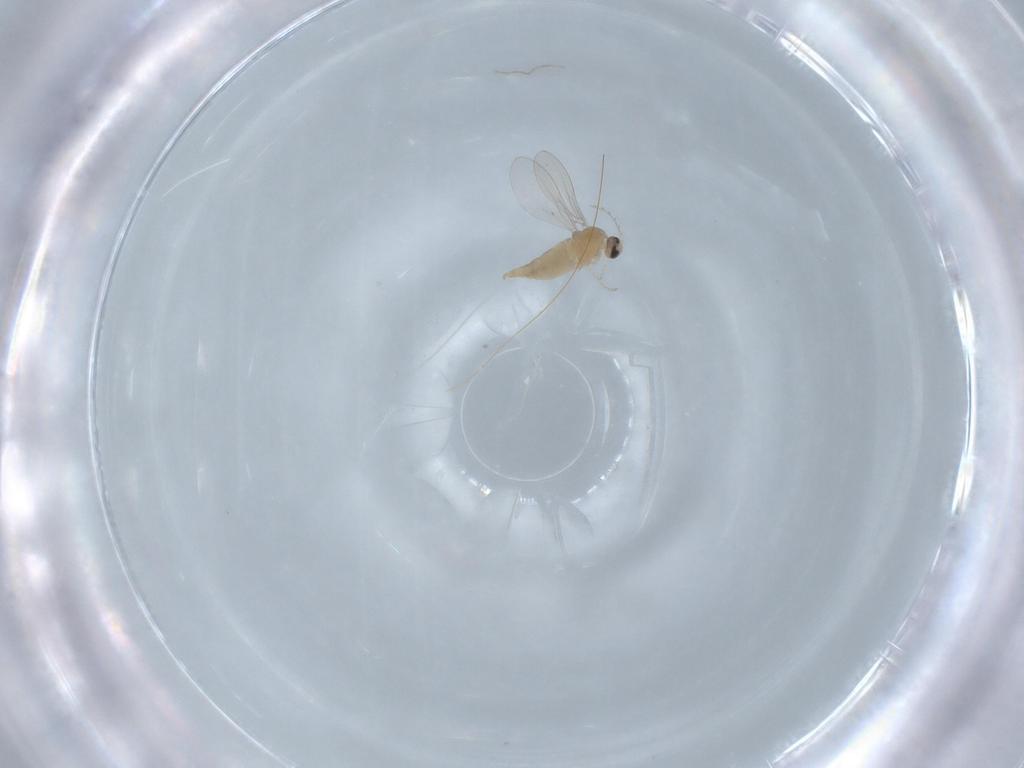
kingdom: Animalia
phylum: Arthropoda
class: Insecta
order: Diptera
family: Cecidomyiidae
